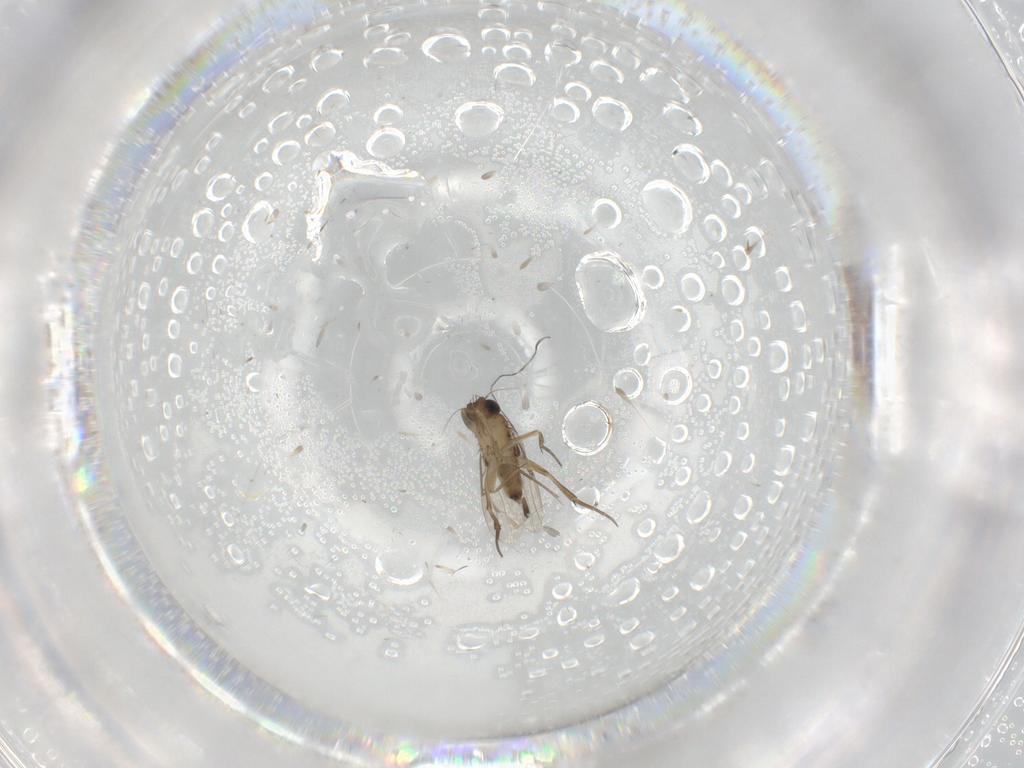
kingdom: Animalia
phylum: Arthropoda
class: Insecta
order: Diptera
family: Phoridae
